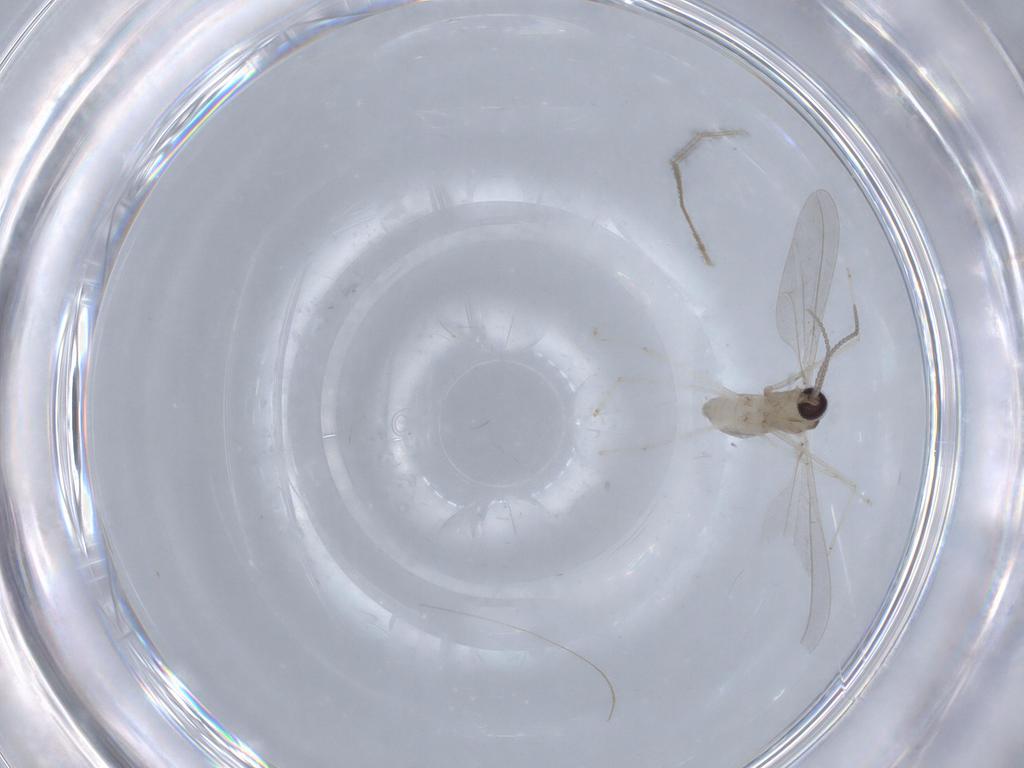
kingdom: Animalia
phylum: Arthropoda
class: Insecta
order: Diptera
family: Cecidomyiidae
